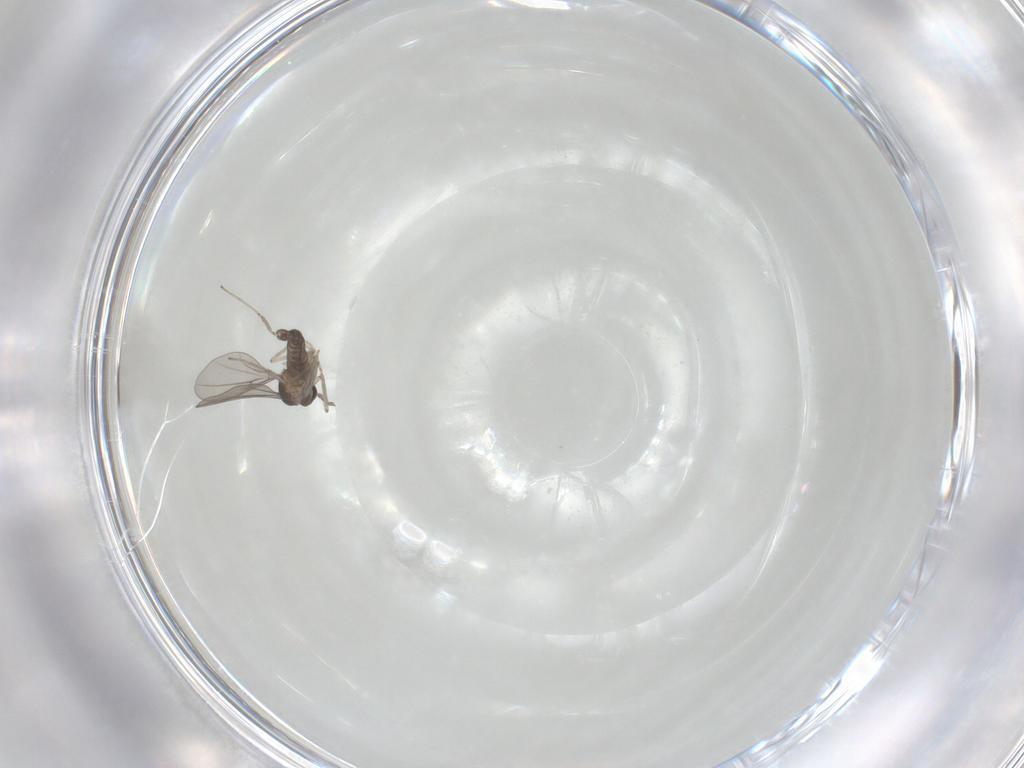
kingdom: Animalia
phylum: Arthropoda
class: Insecta
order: Diptera
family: Cecidomyiidae
